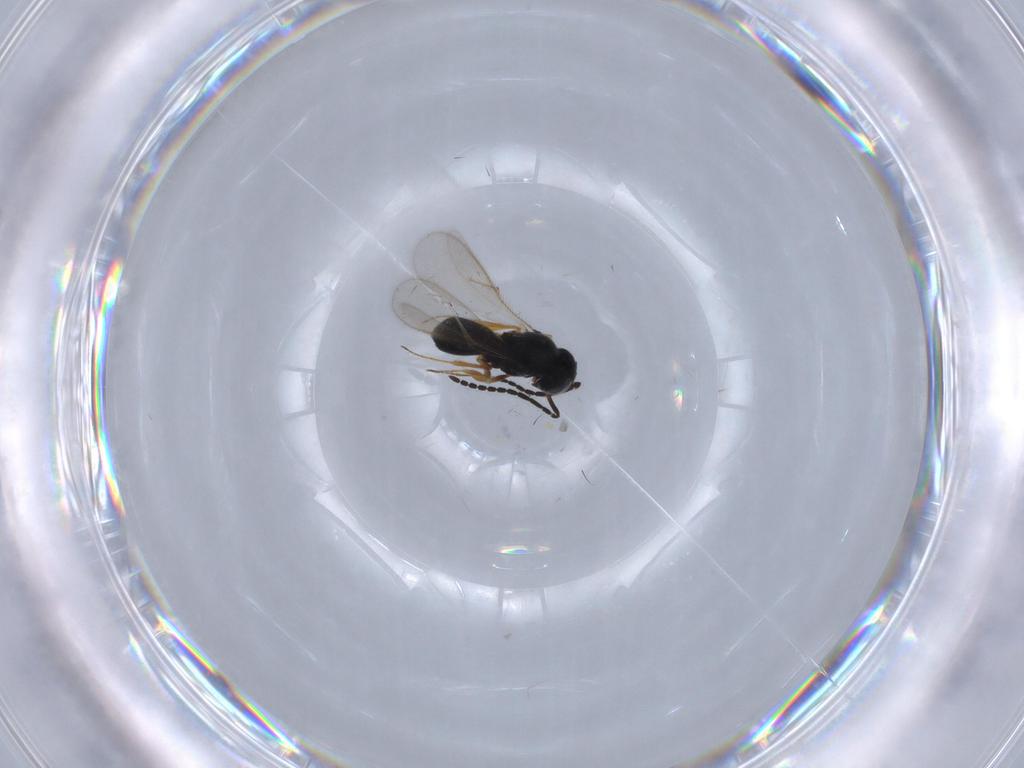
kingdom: Animalia
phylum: Arthropoda
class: Insecta
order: Hymenoptera
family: Scelionidae
